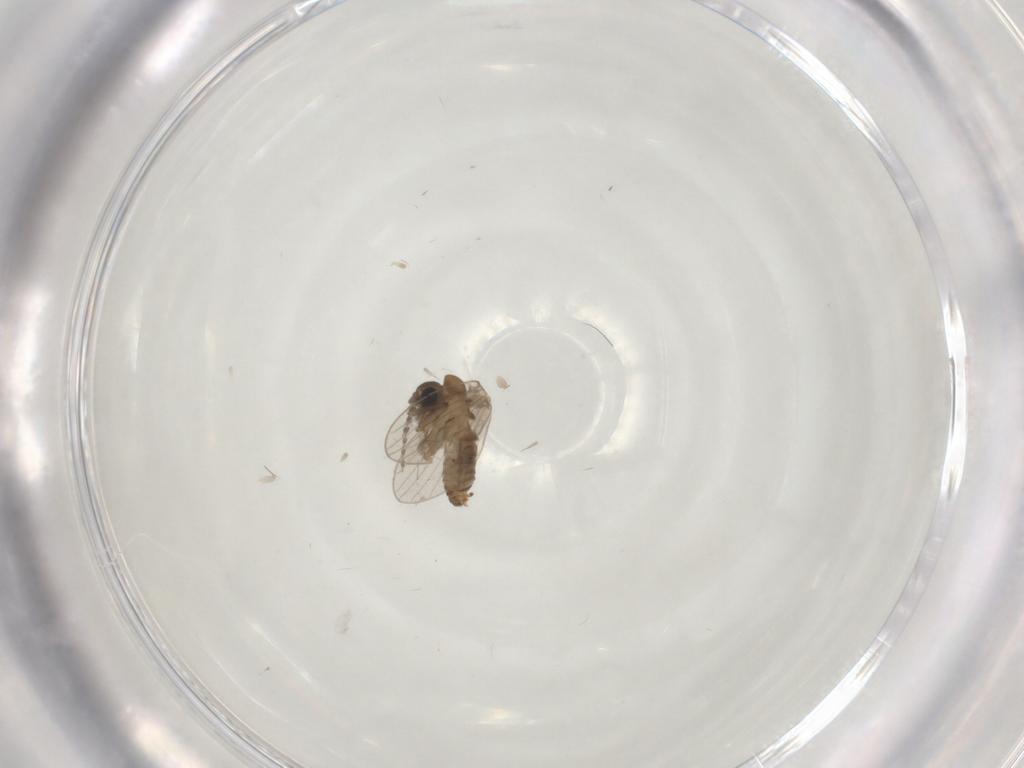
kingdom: Animalia
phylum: Arthropoda
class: Insecta
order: Diptera
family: Sphaeroceridae
